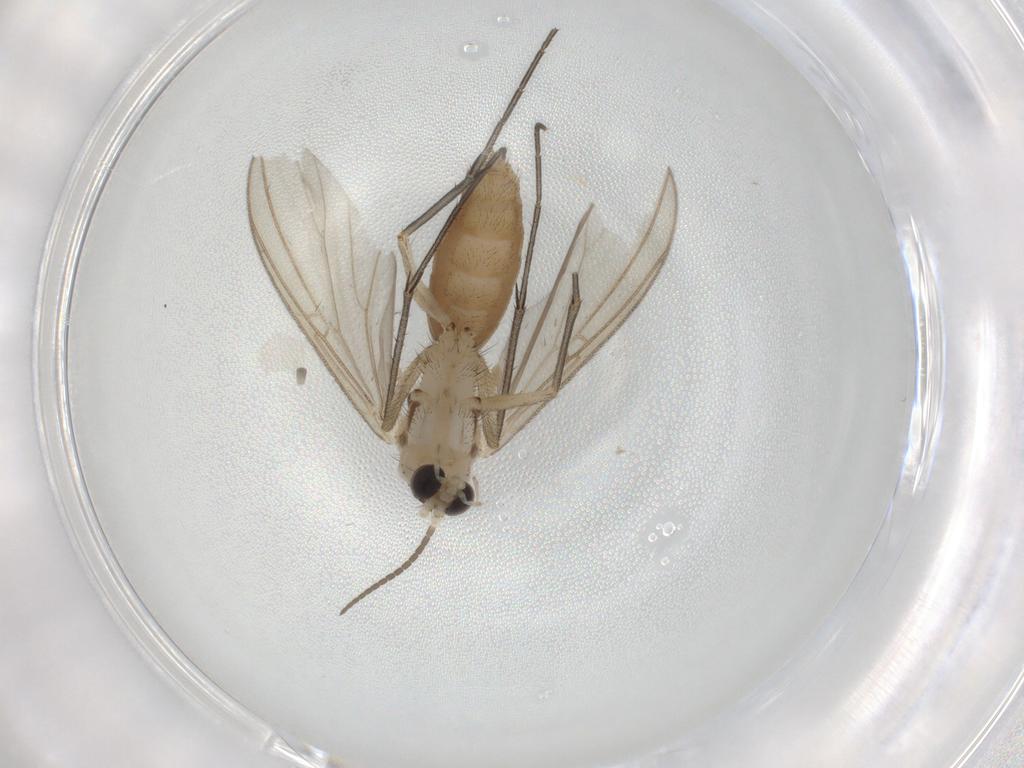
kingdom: Animalia
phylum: Arthropoda
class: Insecta
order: Diptera
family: Mycetophilidae
